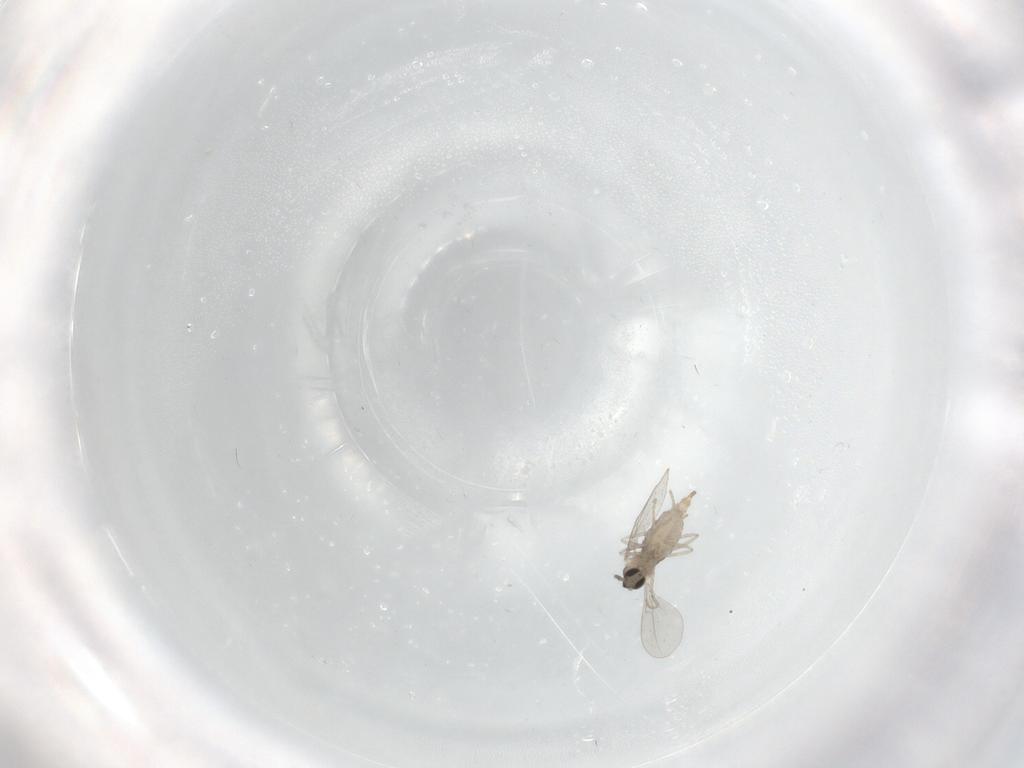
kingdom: Animalia
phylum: Arthropoda
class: Insecta
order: Diptera
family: Cecidomyiidae
